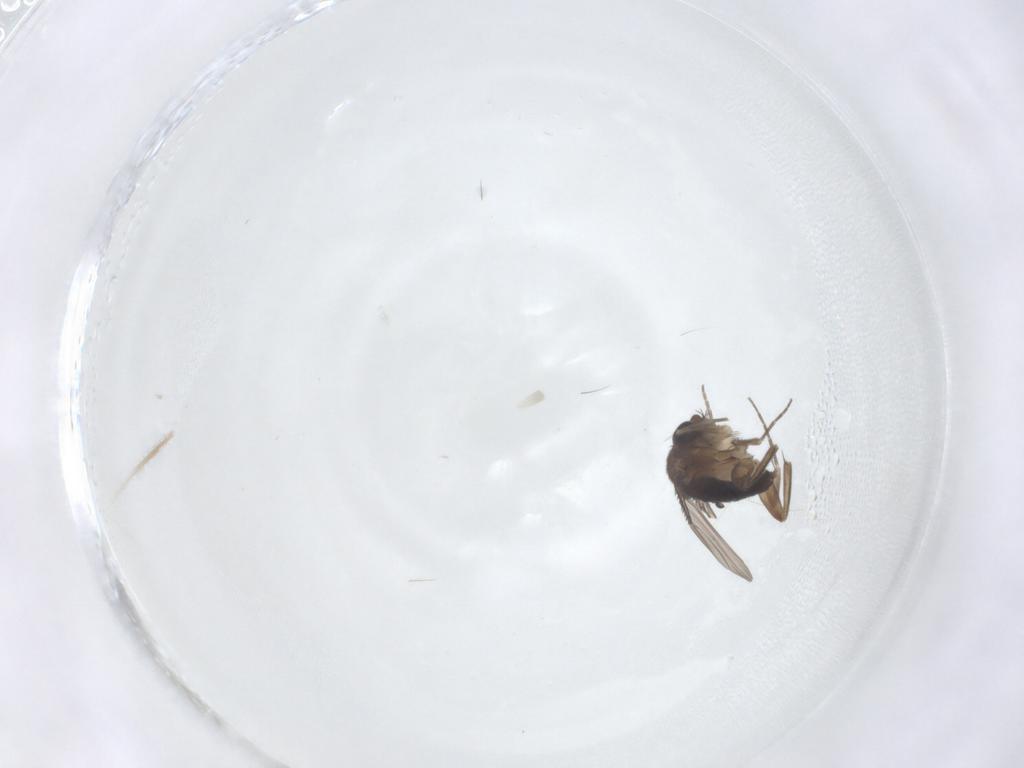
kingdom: Animalia
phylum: Arthropoda
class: Insecta
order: Diptera
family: Phoridae
